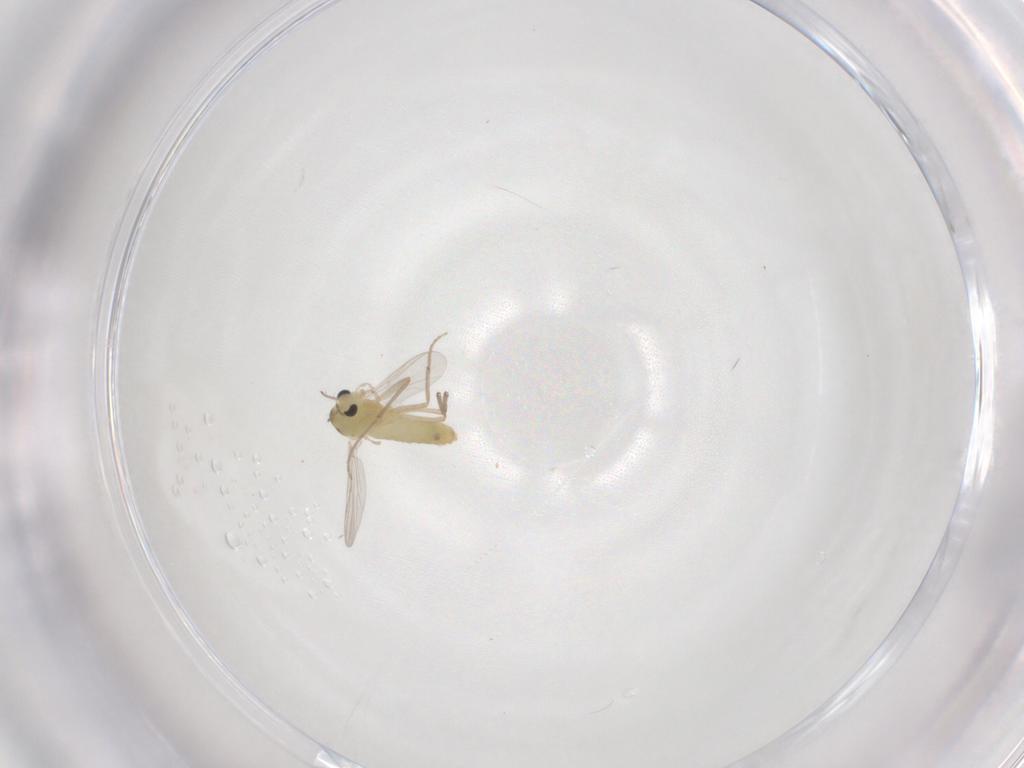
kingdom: Animalia
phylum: Arthropoda
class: Insecta
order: Diptera
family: Chironomidae
